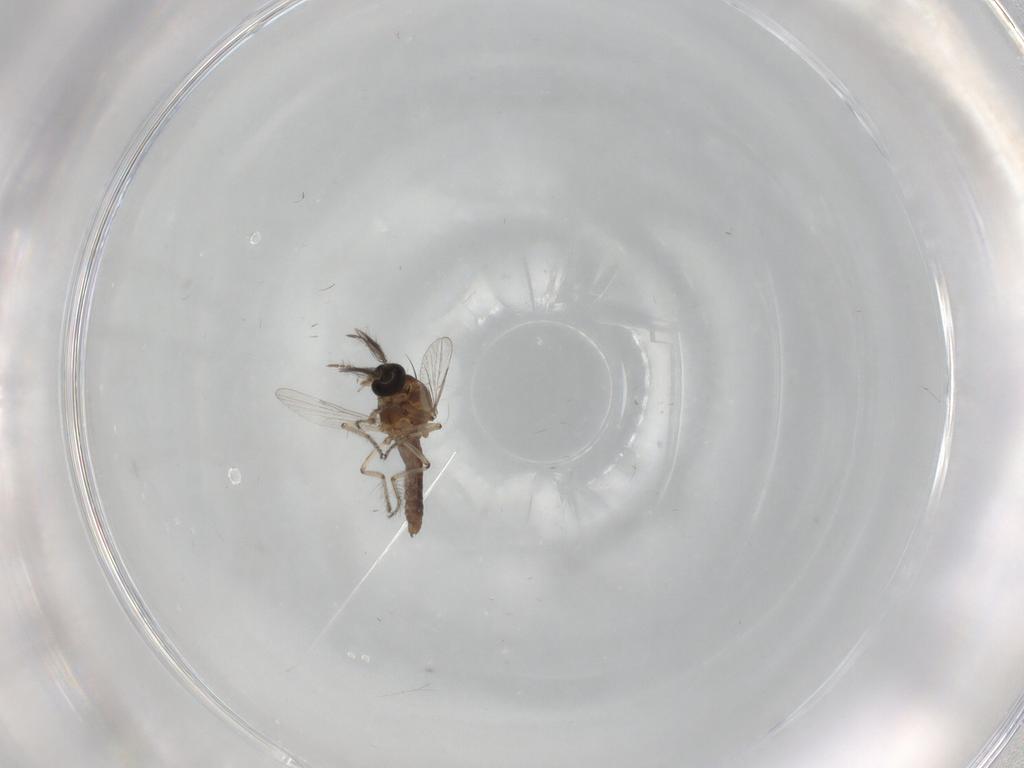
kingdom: Animalia
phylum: Arthropoda
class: Insecta
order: Diptera
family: Ceratopogonidae
